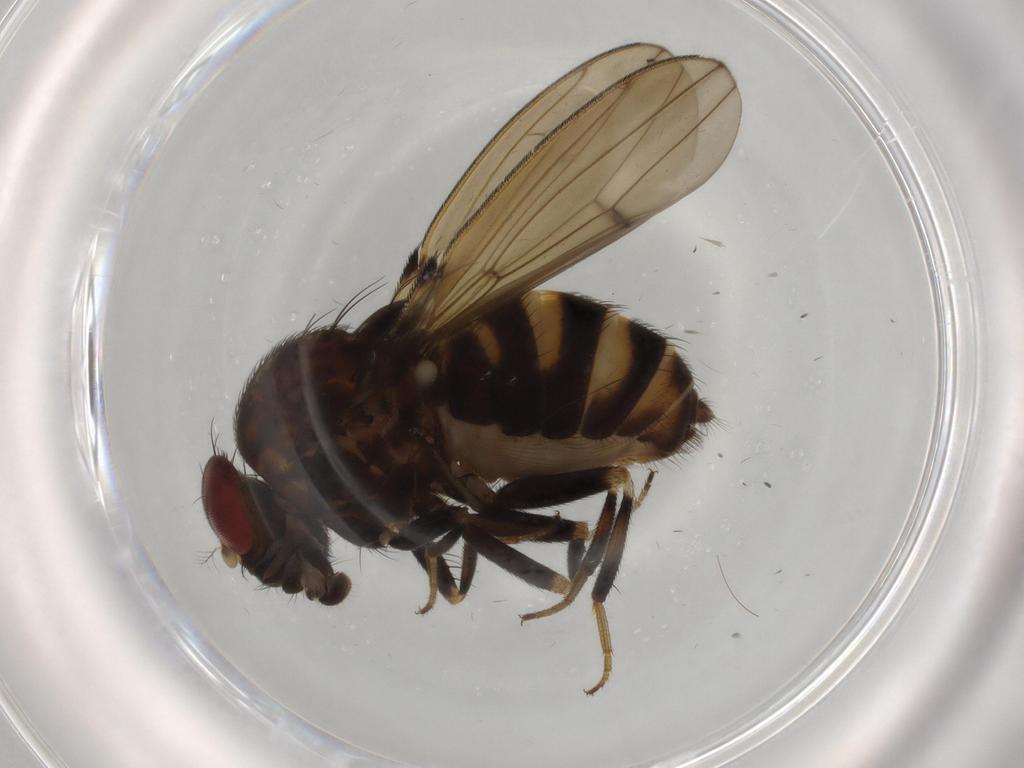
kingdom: Animalia
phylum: Arthropoda
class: Insecta
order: Diptera
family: Drosophilidae
